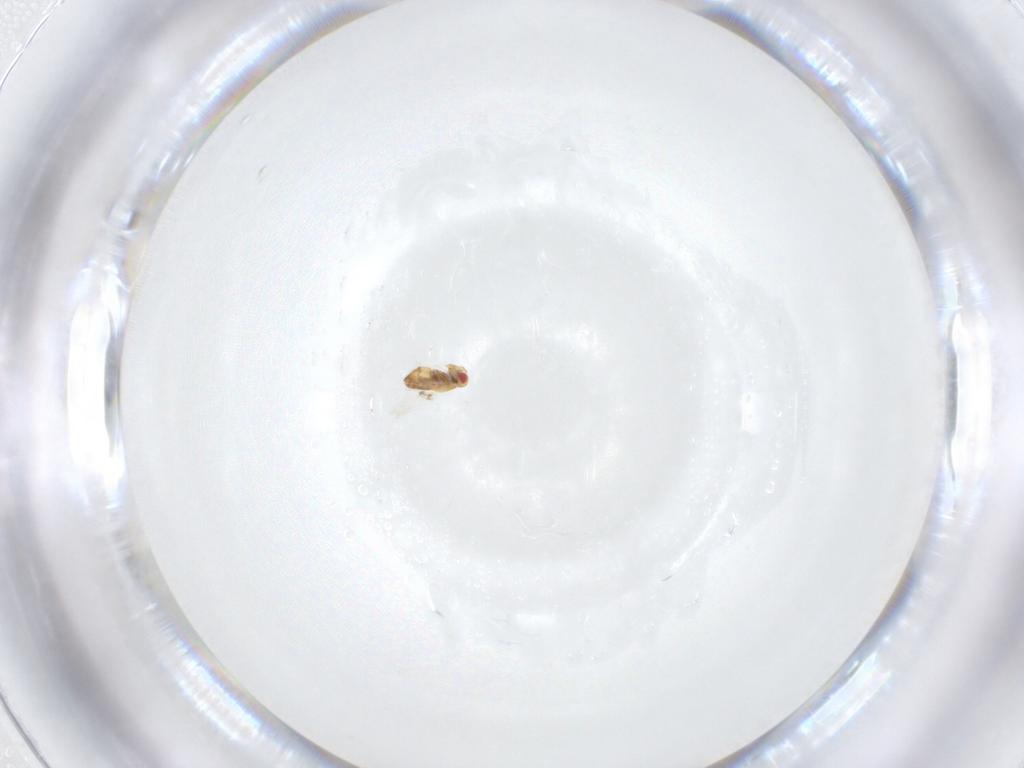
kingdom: Animalia
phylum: Arthropoda
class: Insecta
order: Hymenoptera
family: Trichogrammatidae
